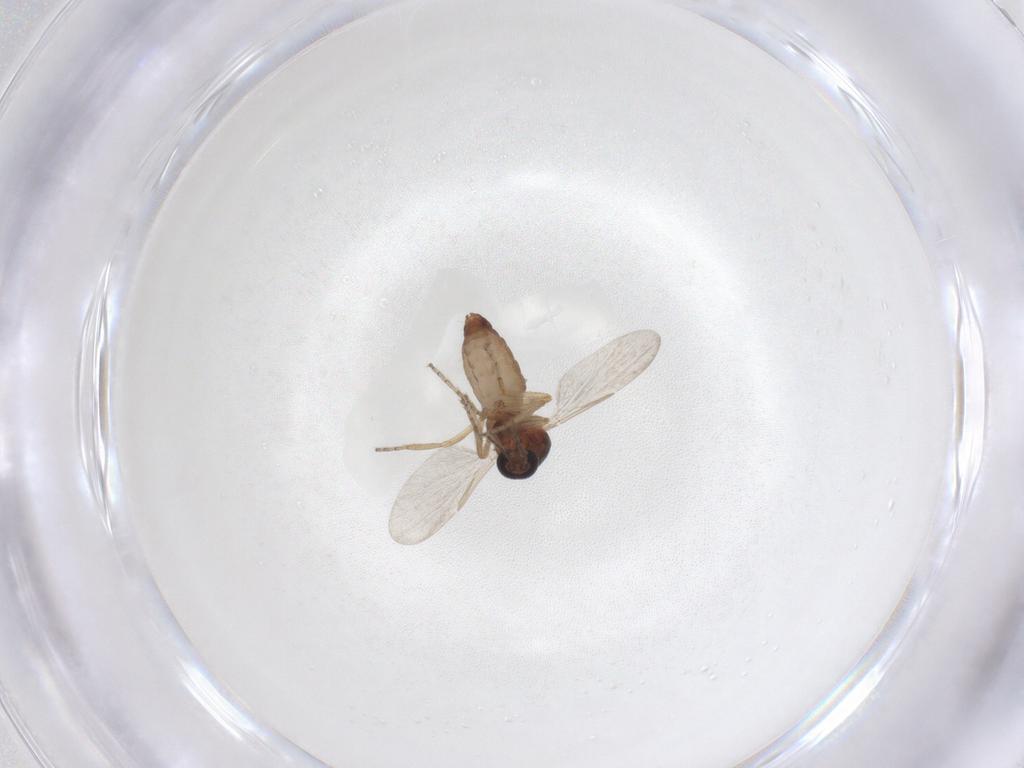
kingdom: Animalia
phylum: Arthropoda
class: Insecta
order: Diptera
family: Ceratopogonidae
